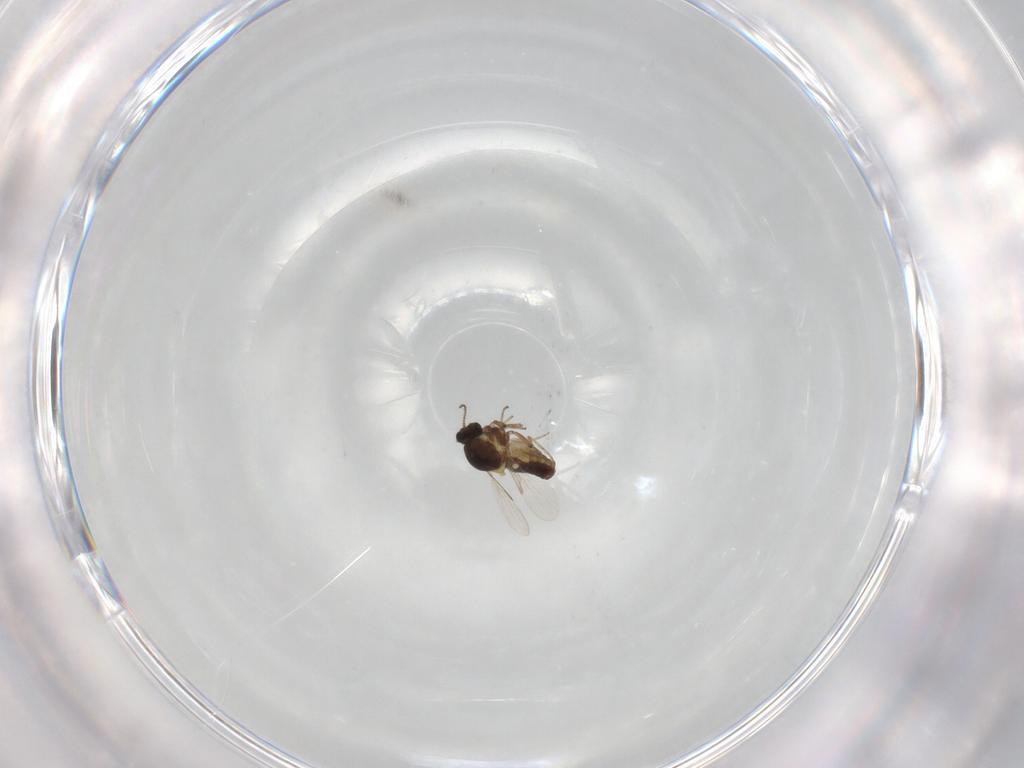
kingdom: Animalia
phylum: Arthropoda
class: Insecta
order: Diptera
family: Ceratopogonidae
